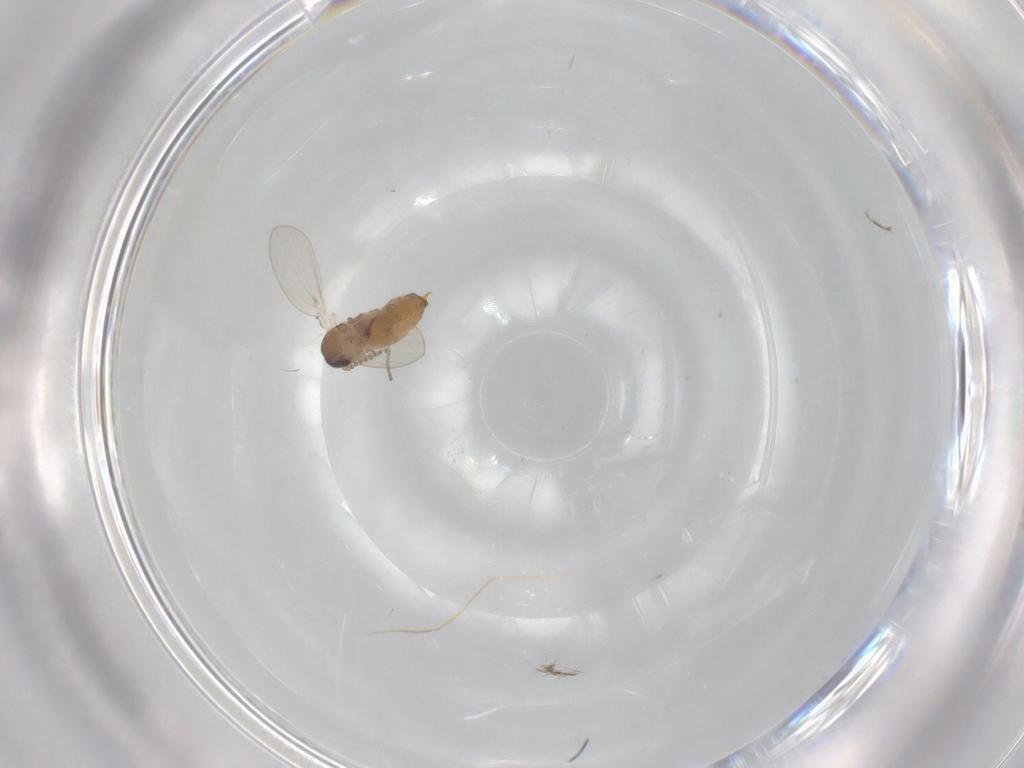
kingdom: Animalia
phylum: Arthropoda
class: Insecta
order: Diptera
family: Psychodidae
